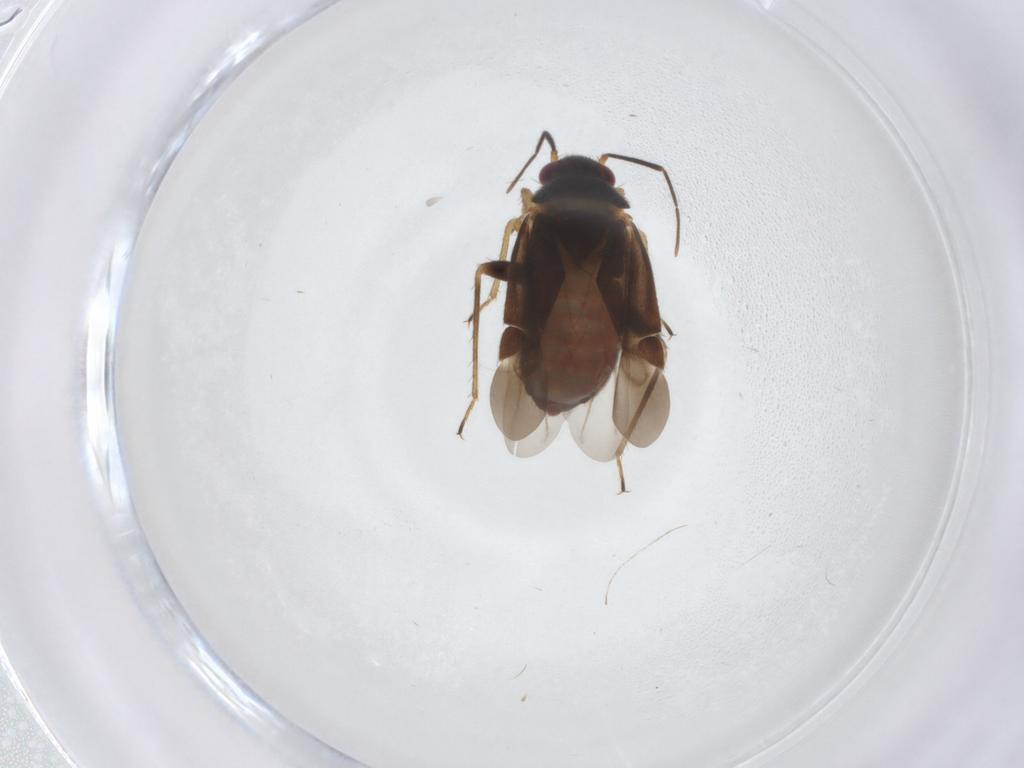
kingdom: Animalia
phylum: Arthropoda
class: Insecta
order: Hemiptera
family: Miridae
